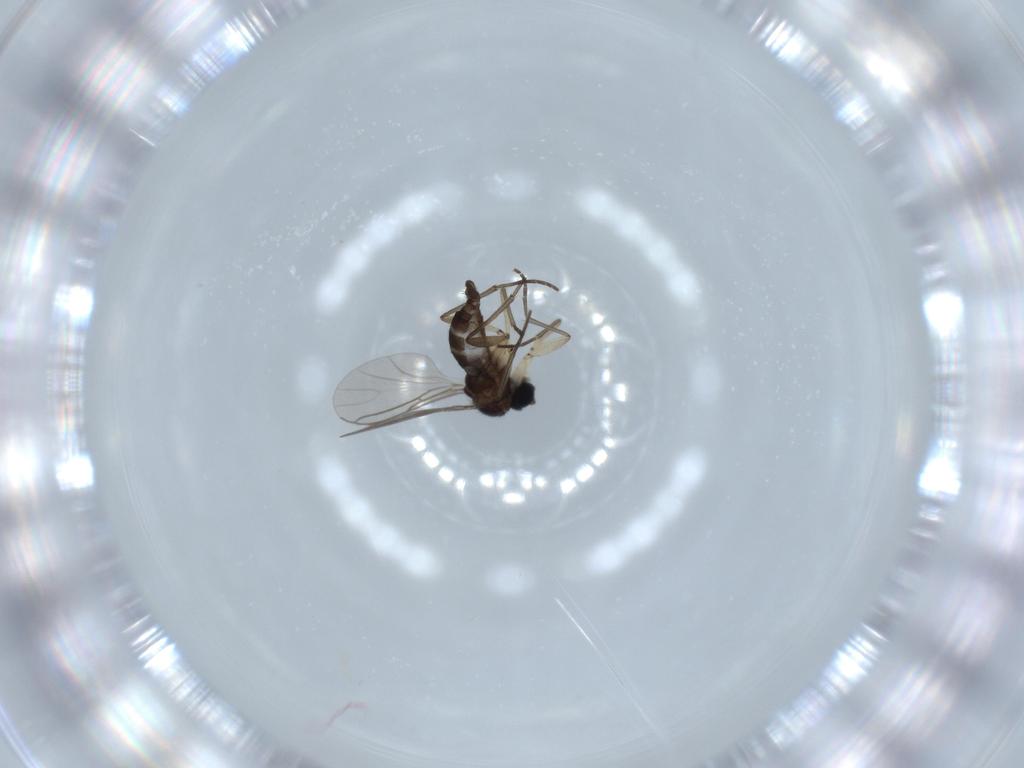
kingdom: Animalia
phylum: Arthropoda
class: Insecta
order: Diptera
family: Sciaridae
